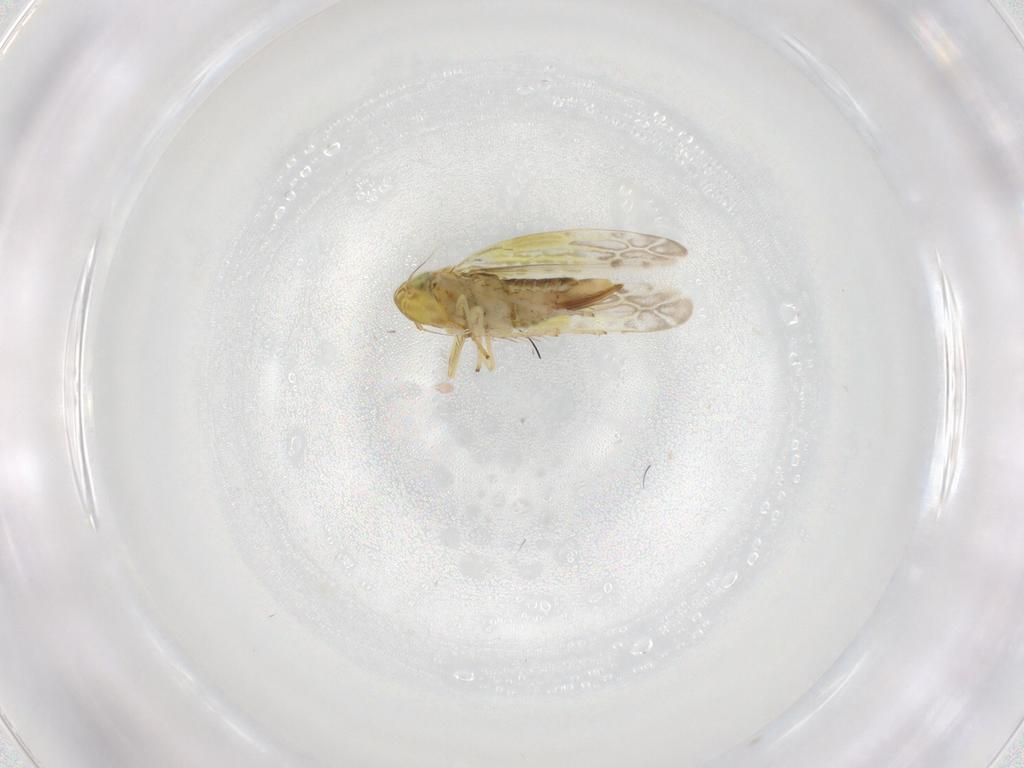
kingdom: Animalia
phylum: Arthropoda
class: Insecta
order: Hemiptera
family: Cicadellidae
